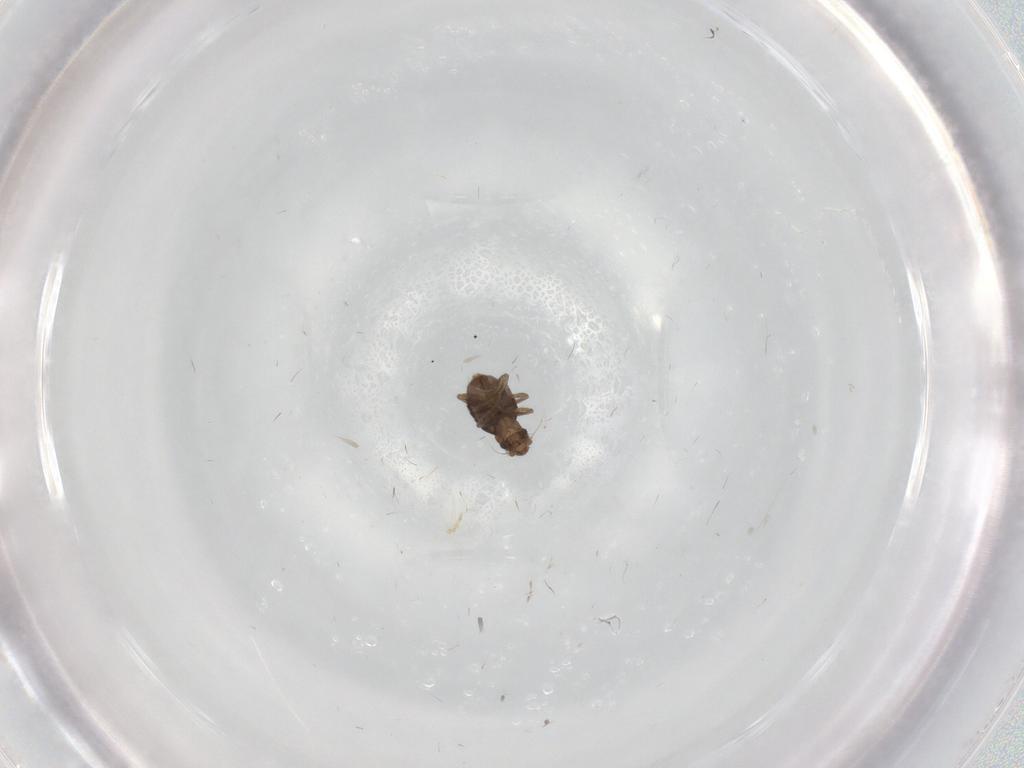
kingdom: Animalia
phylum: Arthropoda
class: Insecta
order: Diptera
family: Chironomidae
